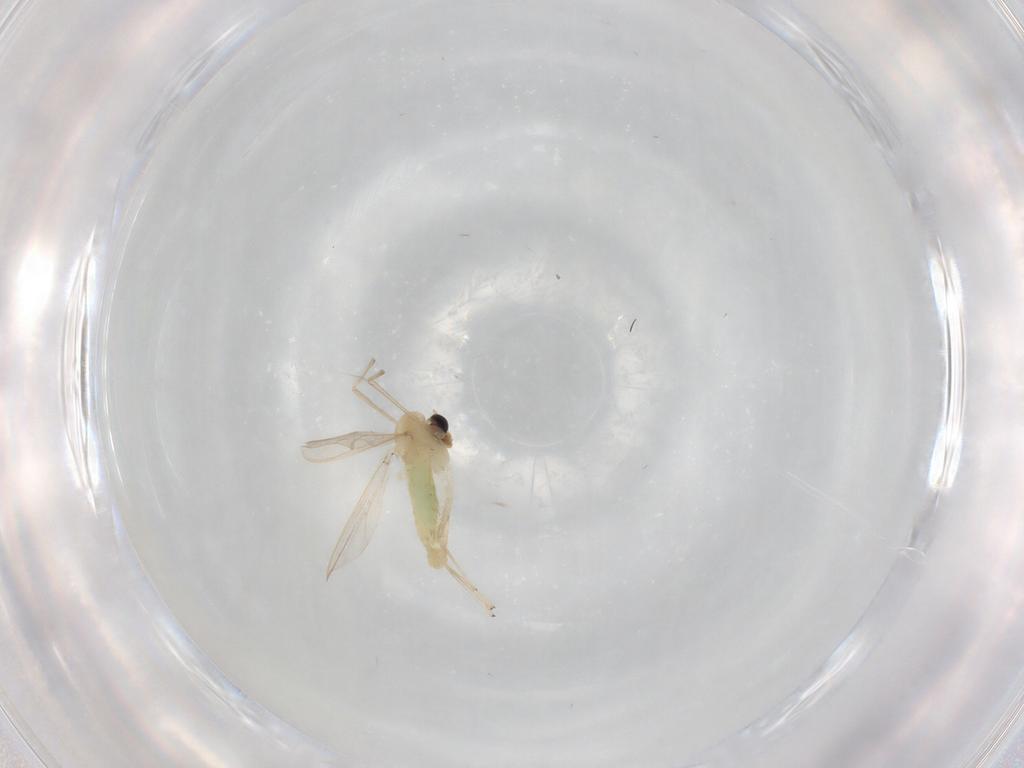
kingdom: Animalia
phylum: Arthropoda
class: Insecta
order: Diptera
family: Chironomidae
